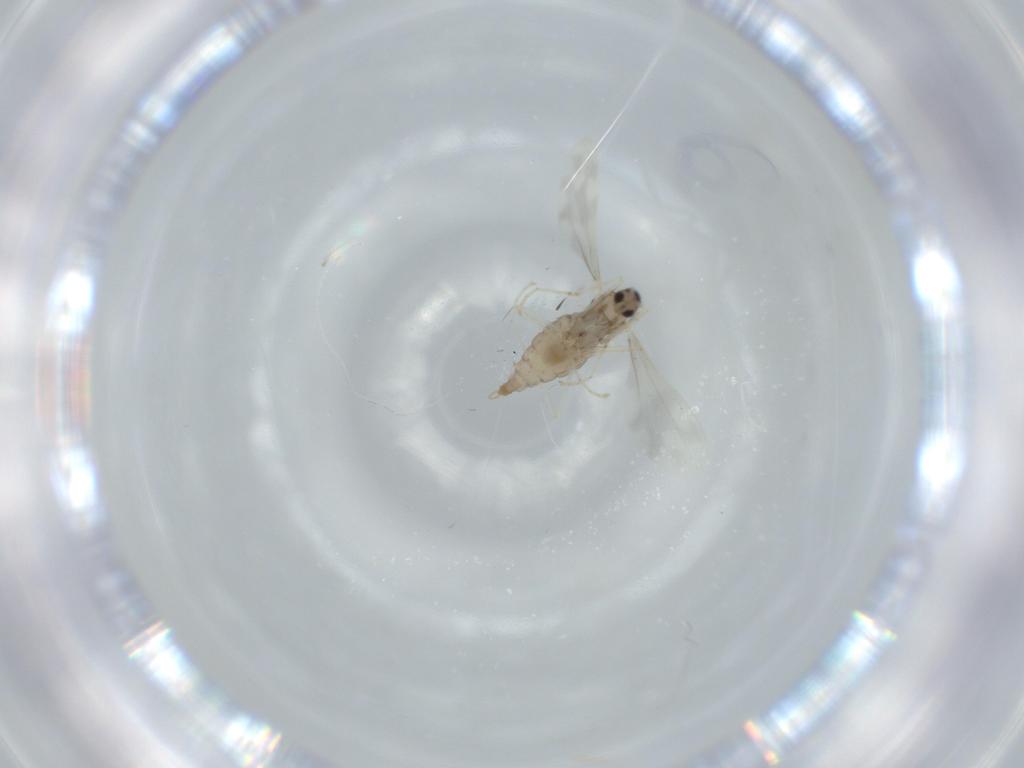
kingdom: Animalia
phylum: Arthropoda
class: Insecta
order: Diptera
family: Cecidomyiidae
